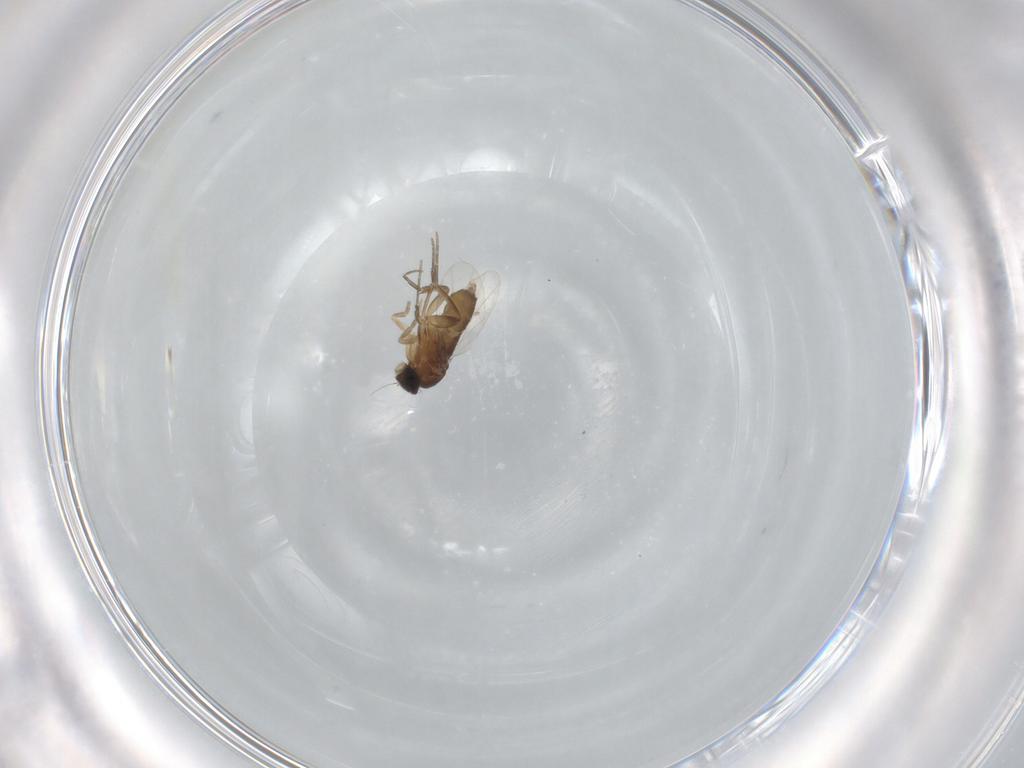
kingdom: Animalia
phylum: Arthropoda
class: Insecta
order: Diptera
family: Phoridae
